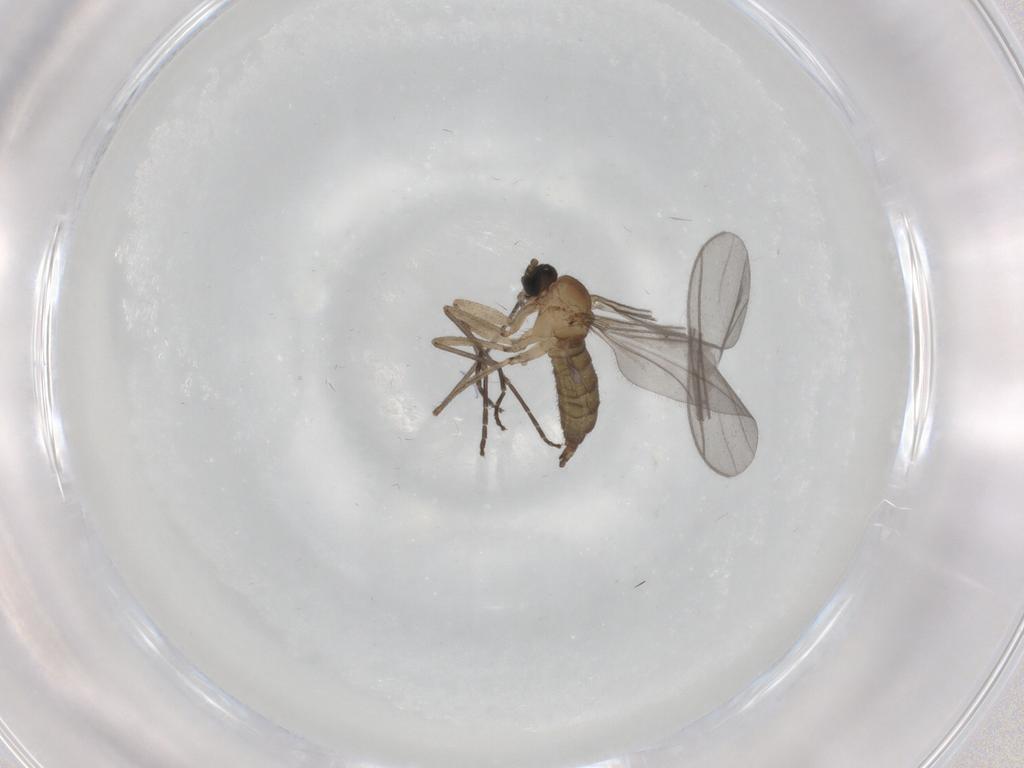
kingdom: Animalia
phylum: Arthropoda
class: Insecta
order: Diptera
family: Sciaridae
